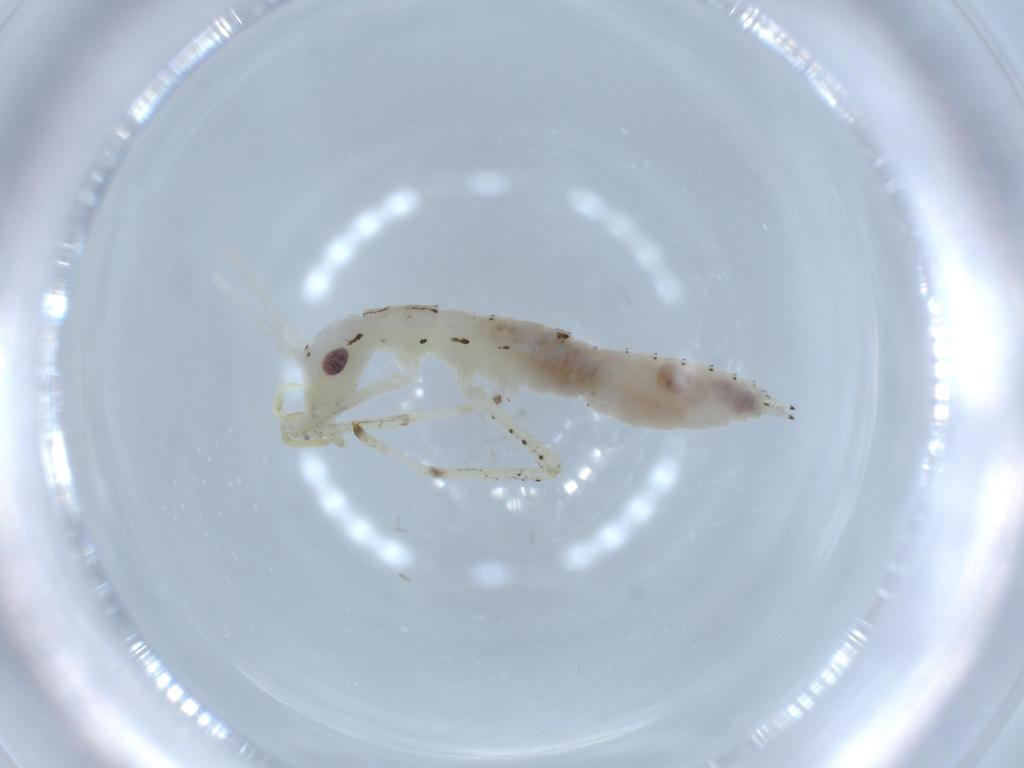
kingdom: Animalia
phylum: Arthropoda
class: Insecta
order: Orthoptera
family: Oecanthidae
